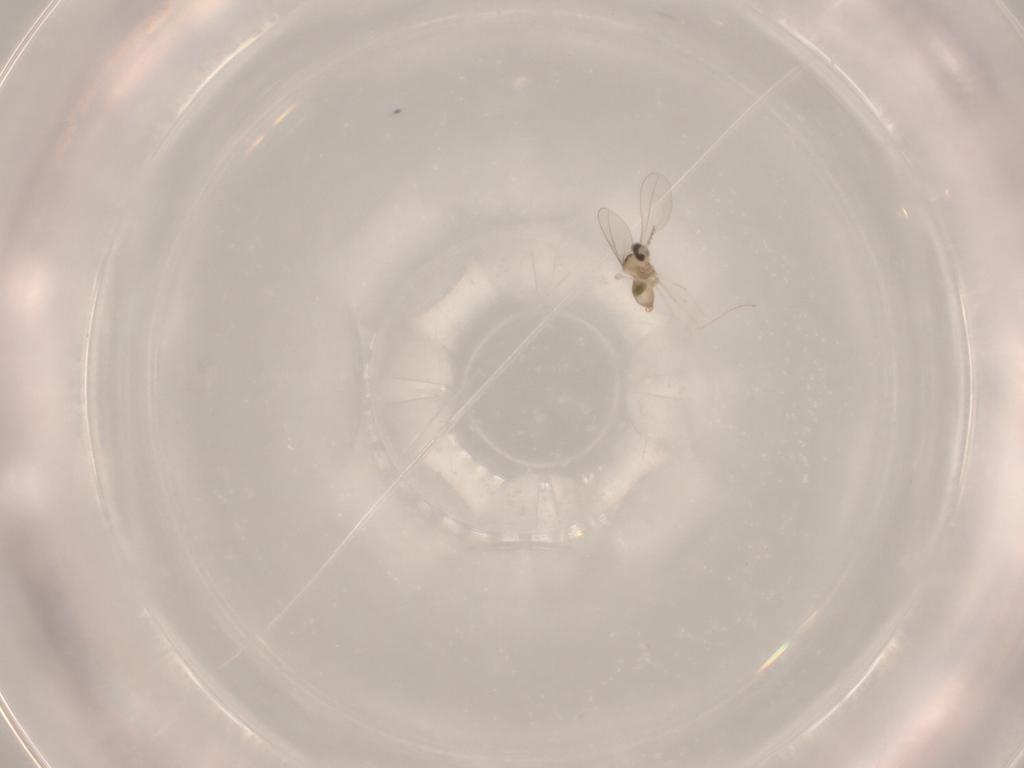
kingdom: Animalia
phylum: Arthropoda
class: Insecta
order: Diptera
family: Cecidomyiidae
